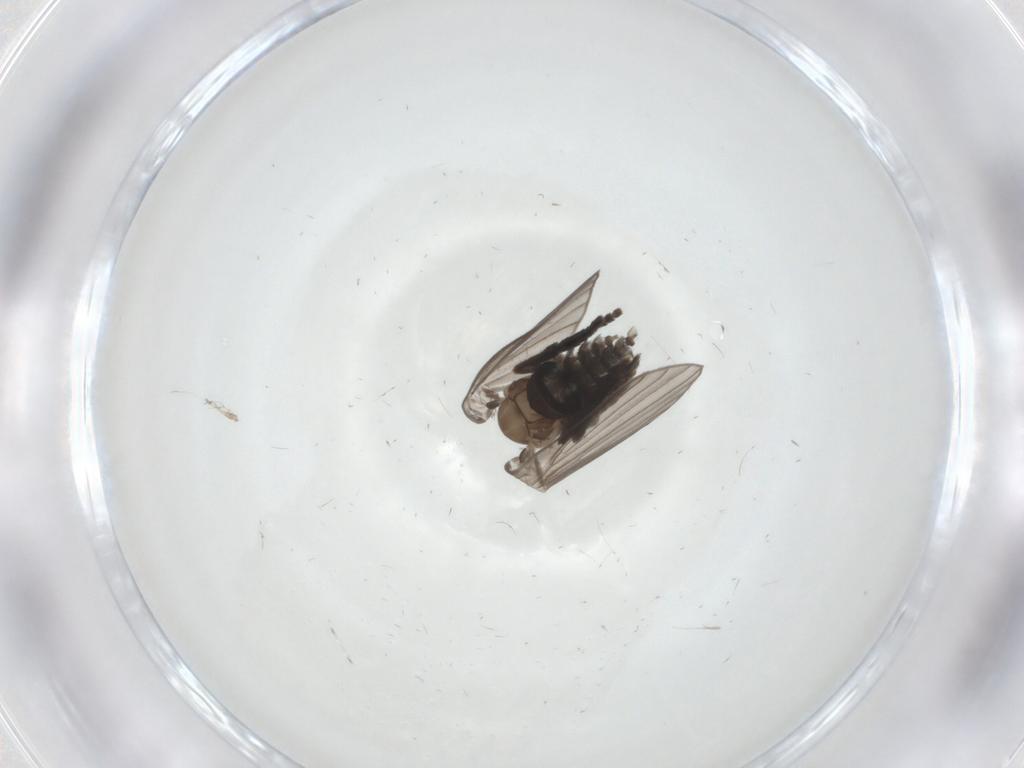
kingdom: Animalia
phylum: Arthropoda
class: Insecta
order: Diptera
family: Psychodidae
